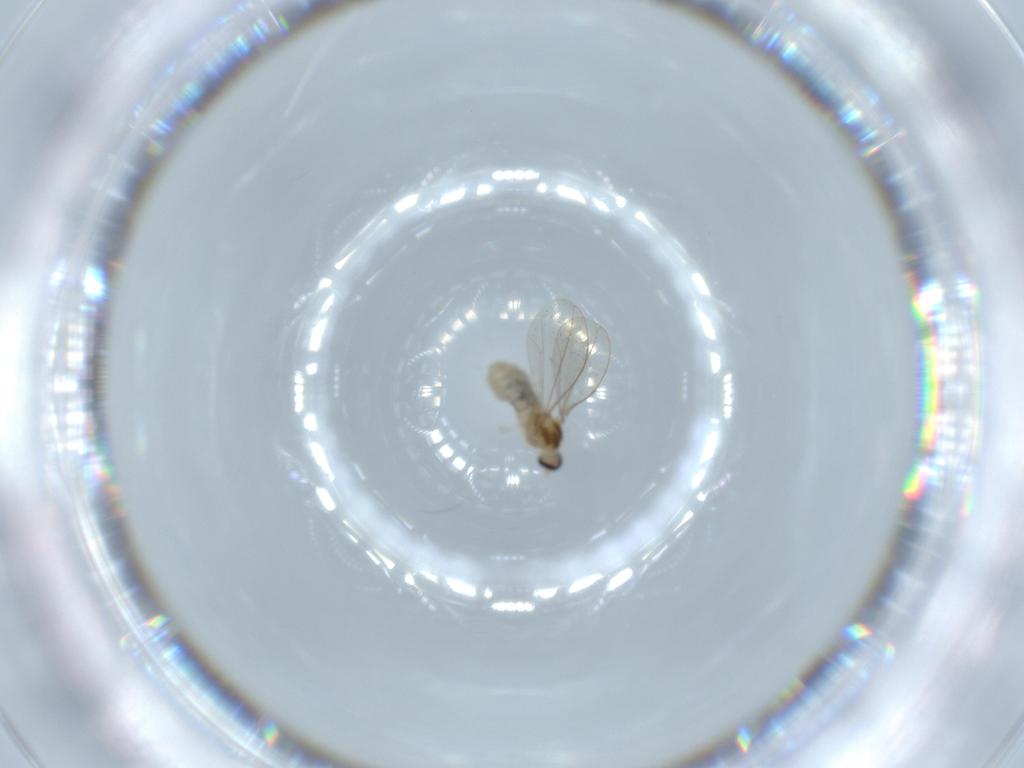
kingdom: Animalia
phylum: Arthropoda
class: Insecta
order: Diptera
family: Cecidomyiidae
